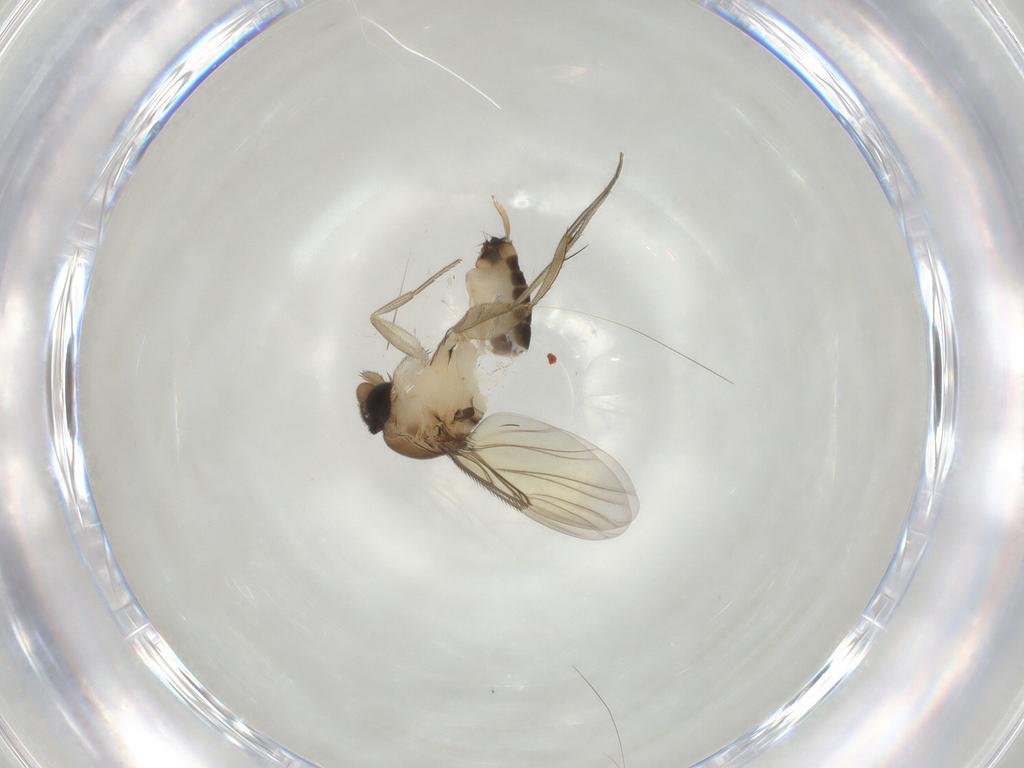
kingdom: Animalia
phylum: Arthropoda
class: Insecta
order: Diptera
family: Phoridae
